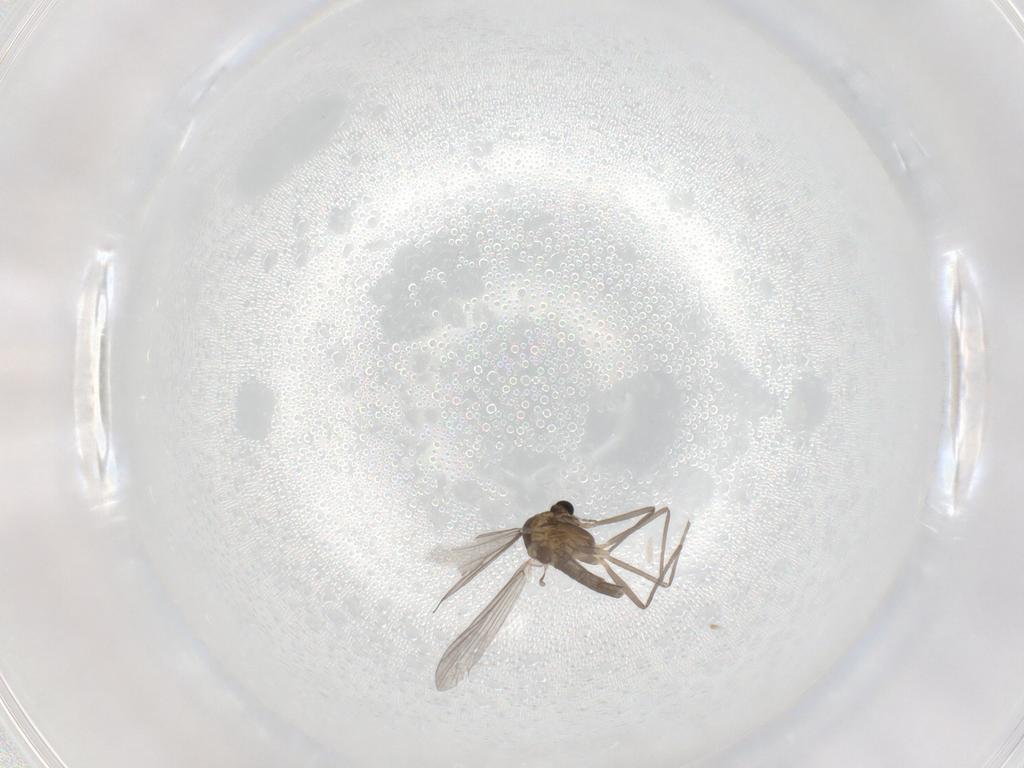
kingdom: Animalia
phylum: Arthropoda
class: Insecta
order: Diptera
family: Chironomidae
